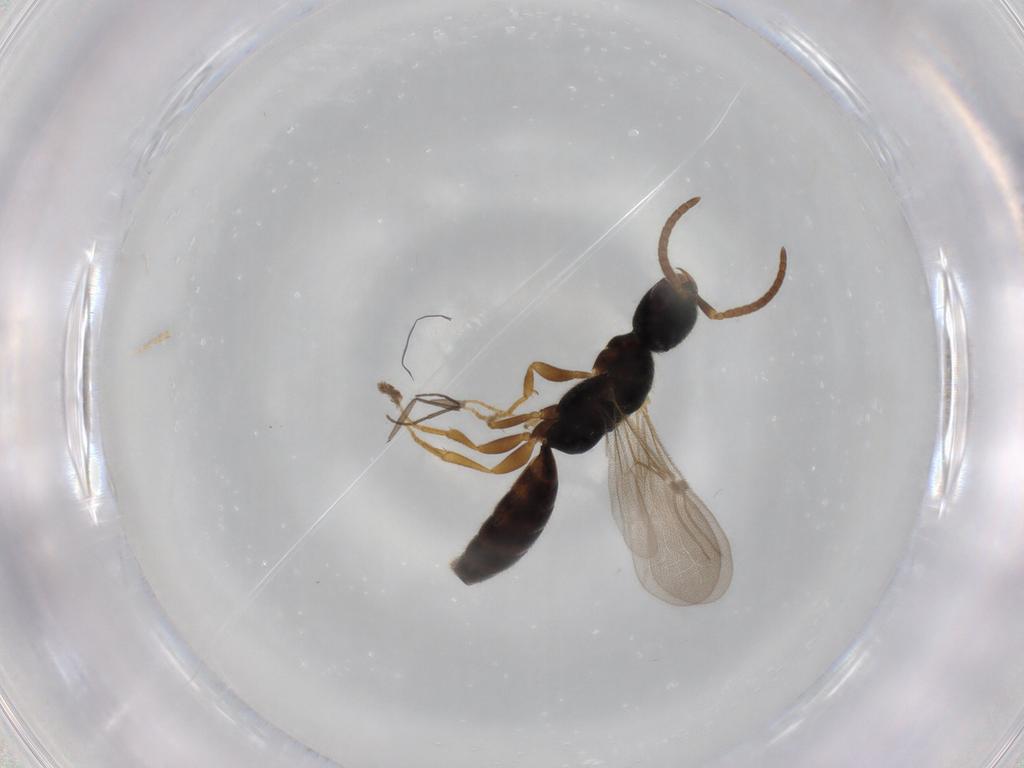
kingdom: Animalia
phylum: Arthropoda
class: Insecta
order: Hymenoptera
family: Bethylidae
